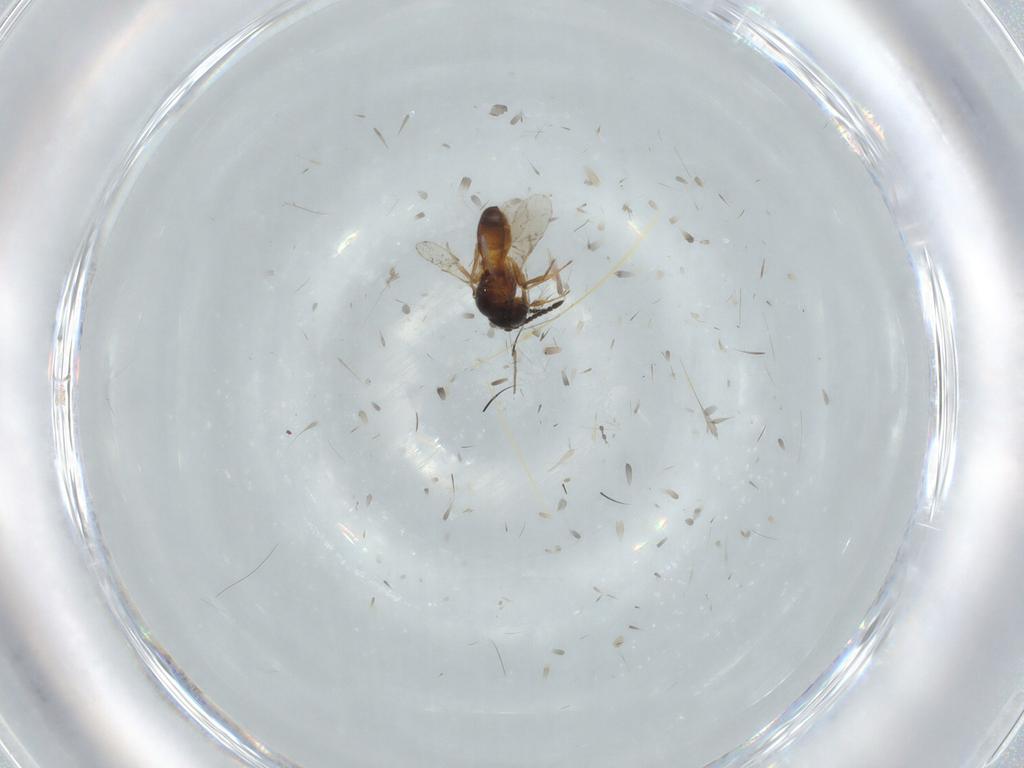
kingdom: Animalia
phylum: Arthropoda
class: Insecta
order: Hymenoptera
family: Scelionidae
